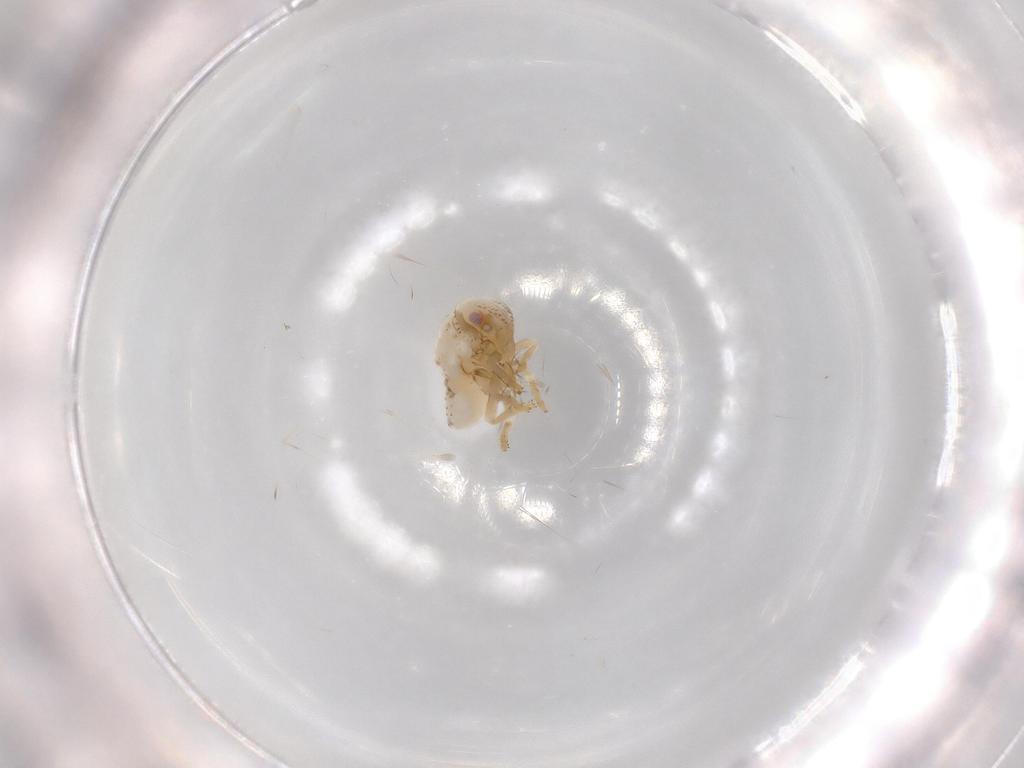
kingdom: Animalia
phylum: Arthropoda
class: Insecta
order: Hemiptera
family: Acanaloniidae
